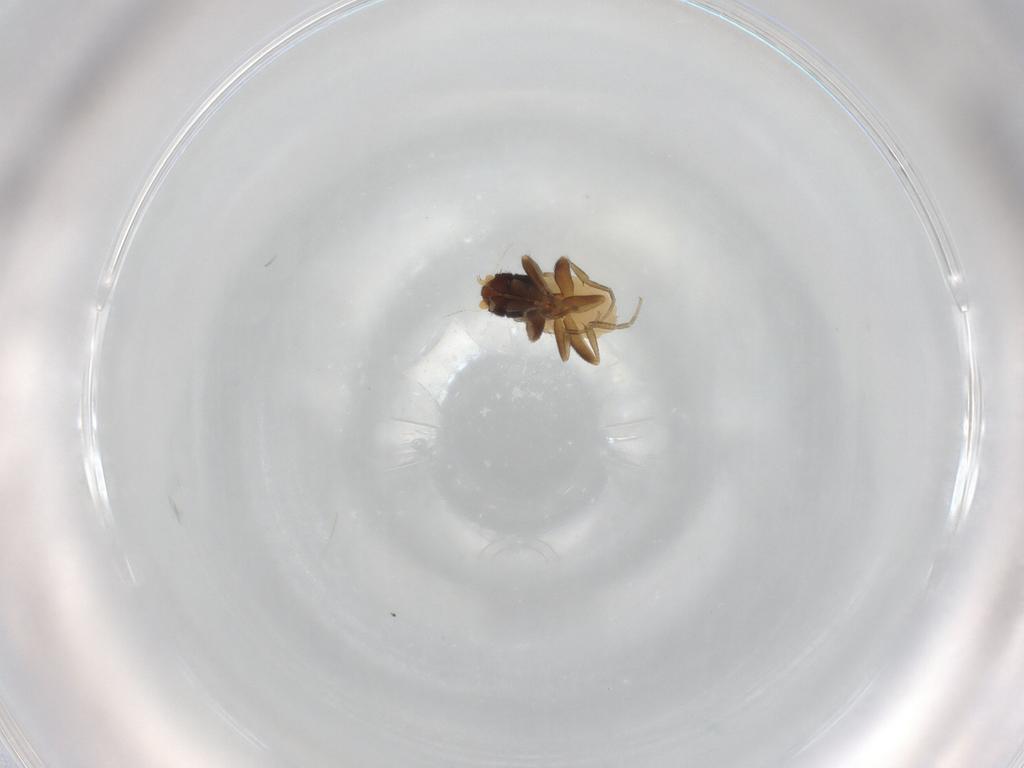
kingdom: Animalia
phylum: Arthropoda
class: Insecta
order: Diptera
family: Phoridae
